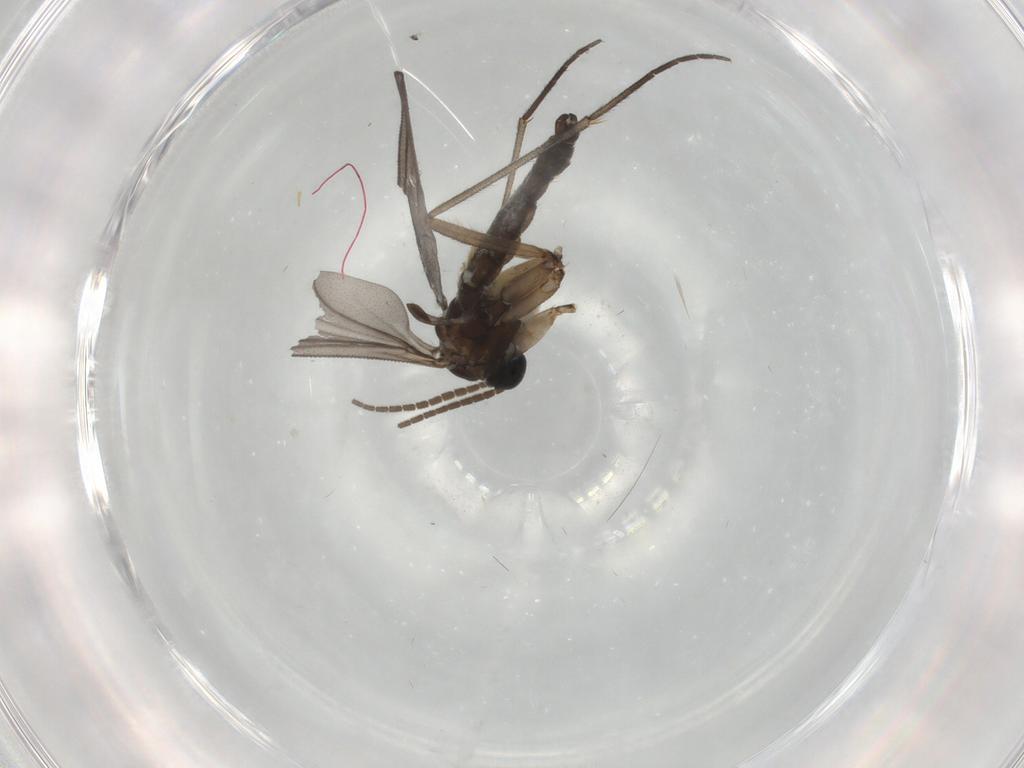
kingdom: Animalia
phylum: Arthropoda
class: Insecta
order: Diptera
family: Sciaridae
